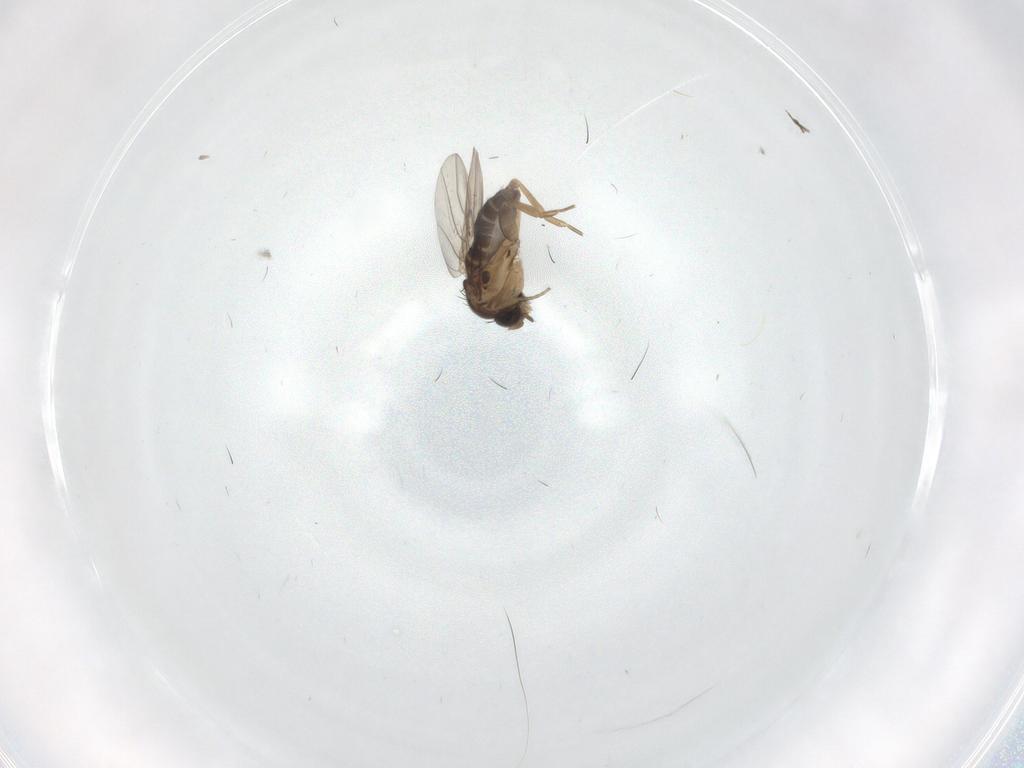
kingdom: Animalia
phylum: Arthropoda
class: Insecta
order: Diptera
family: Phoridae
